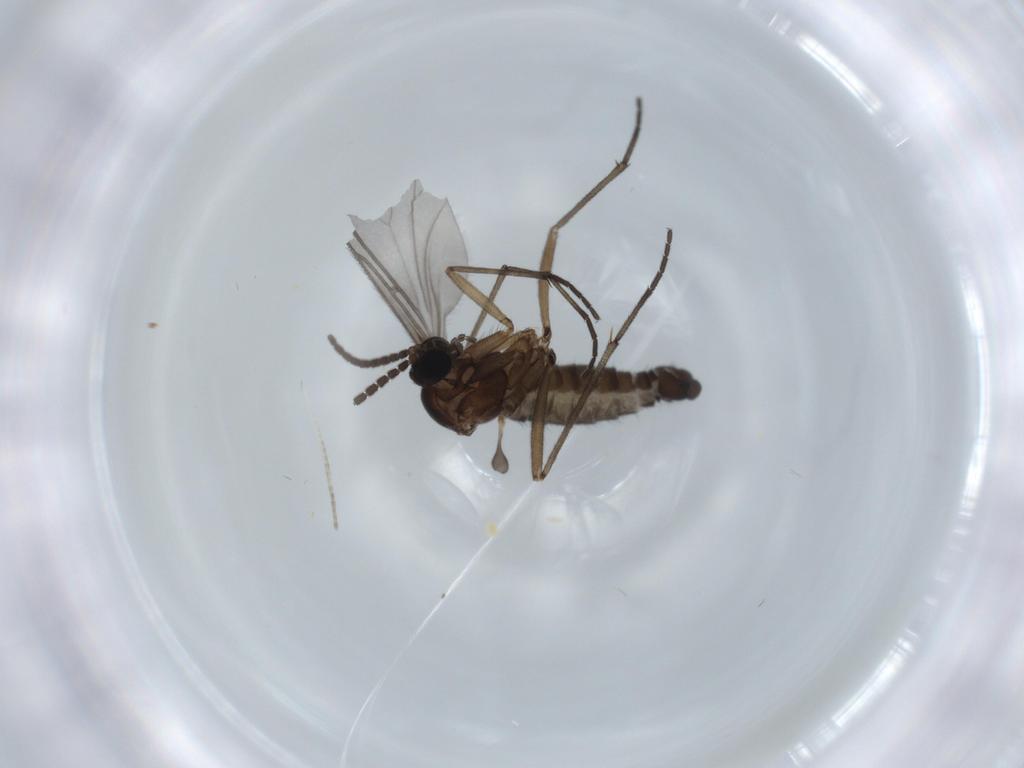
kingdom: Animalia
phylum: Arthropoda
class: Insecta
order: Diptera
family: Sciaridae
